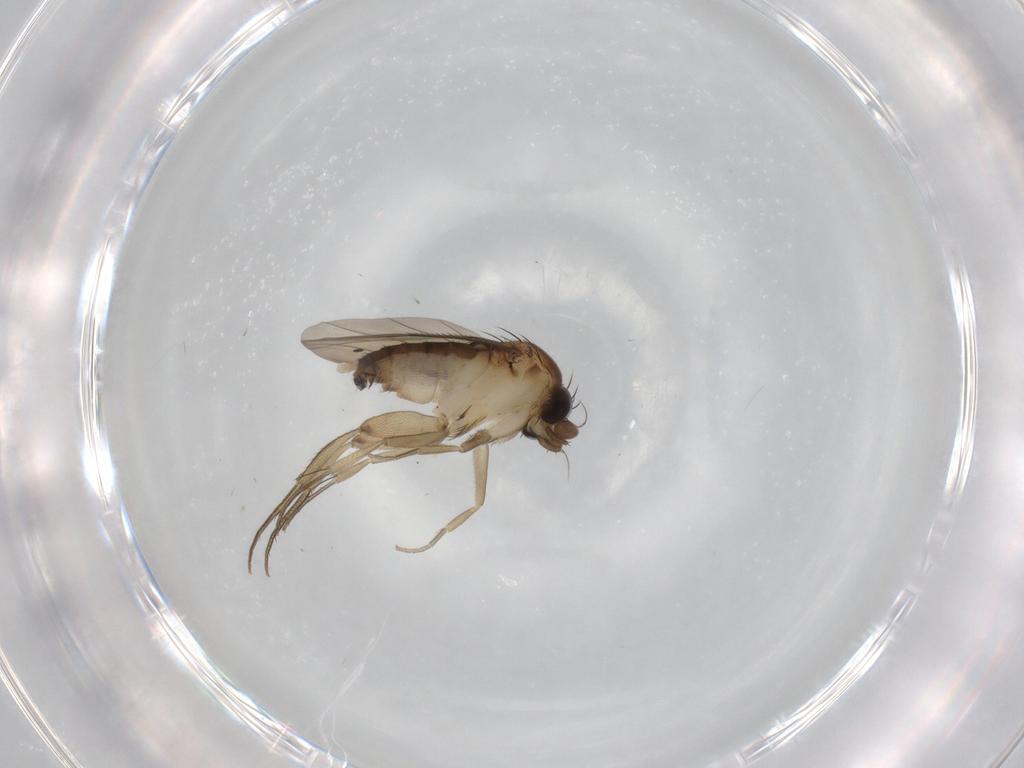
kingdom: Animalia
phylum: Arthropoda
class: Insecta
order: Diptera
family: Phoridae
